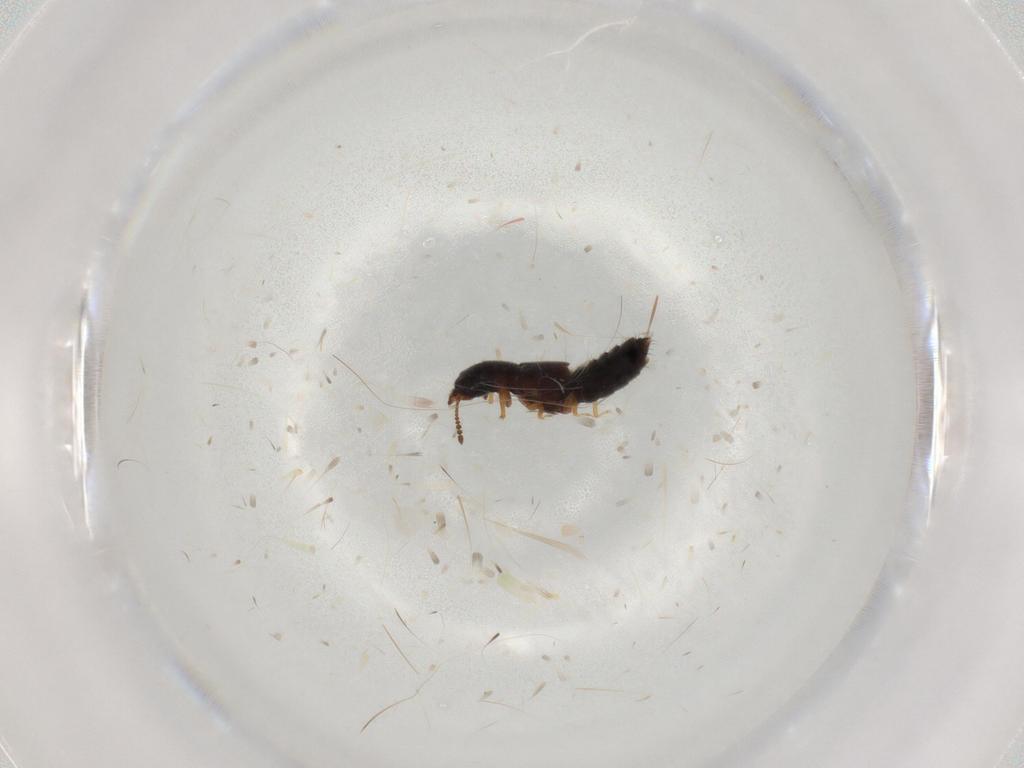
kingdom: Animalia
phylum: Arthropoda
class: Insecta
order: Coleoptera
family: Staphylinidae
